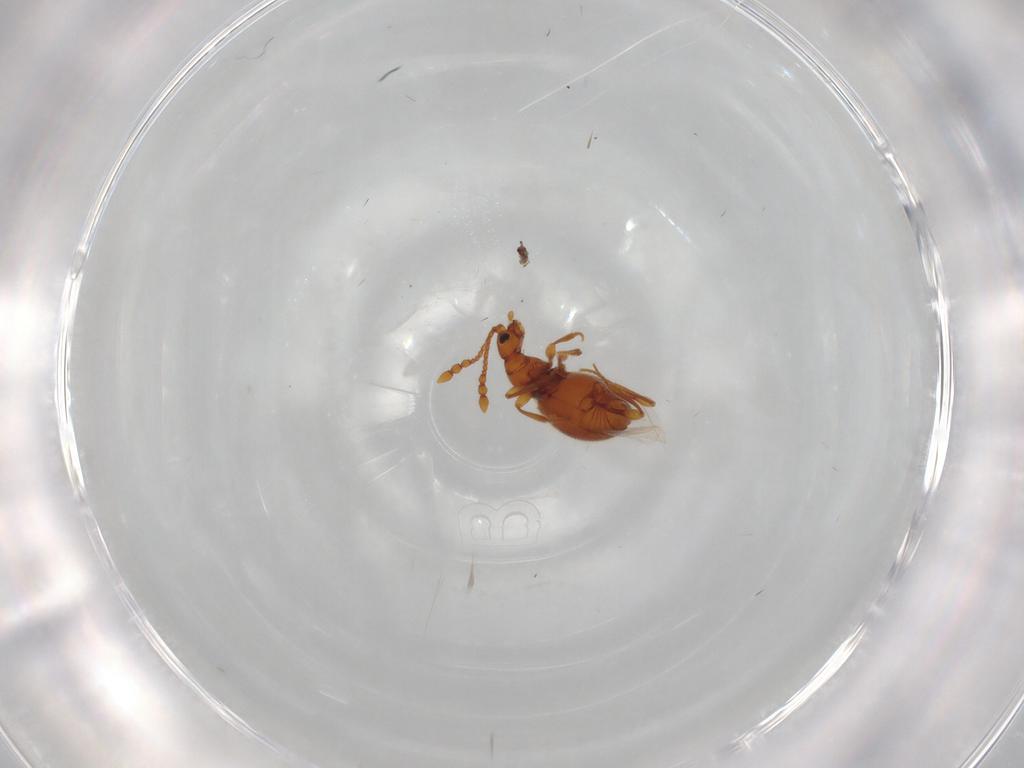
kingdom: Animalia
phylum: Arthropoda
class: Insecta
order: Coleoptera
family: Staphylinidae
